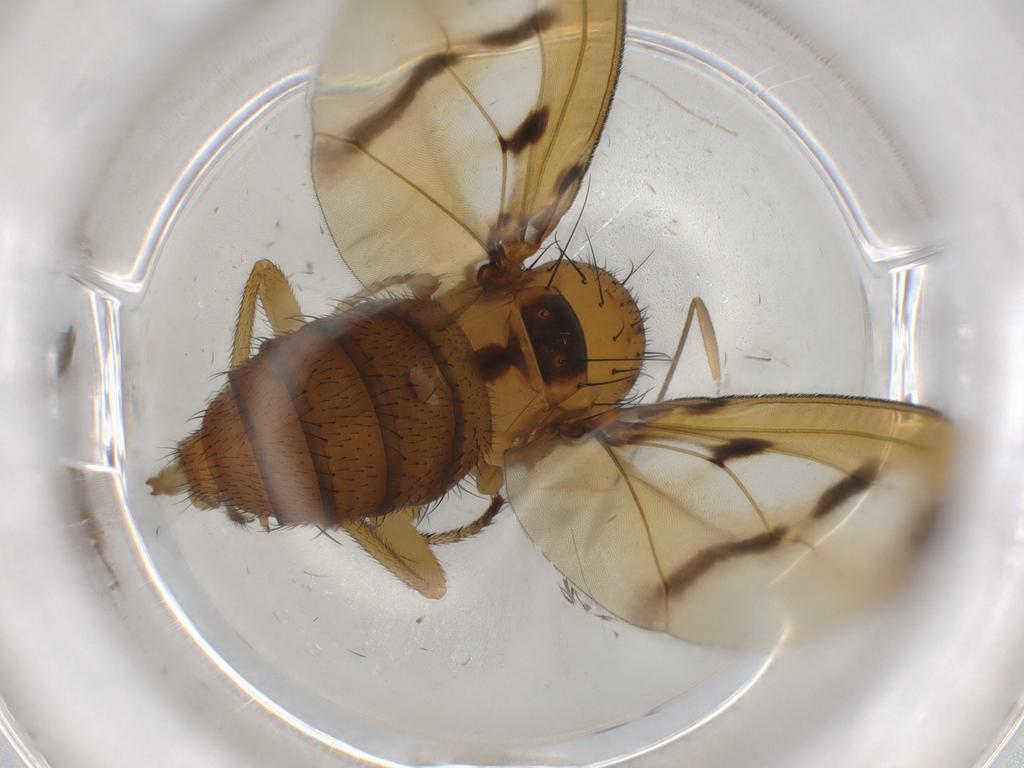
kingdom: Animalia
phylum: Arthropoda
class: Insecta
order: Diptera
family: Limoniidae
